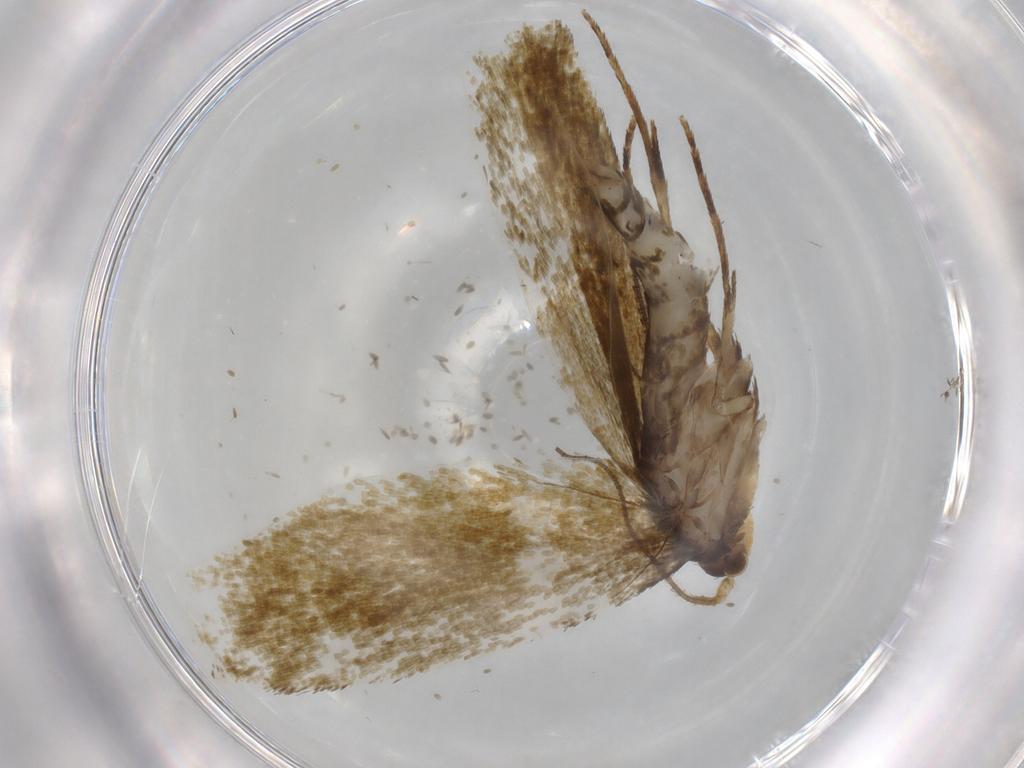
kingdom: Animalia
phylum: Arthropoda
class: Insecta
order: Lepidoptera
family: Tineidae
